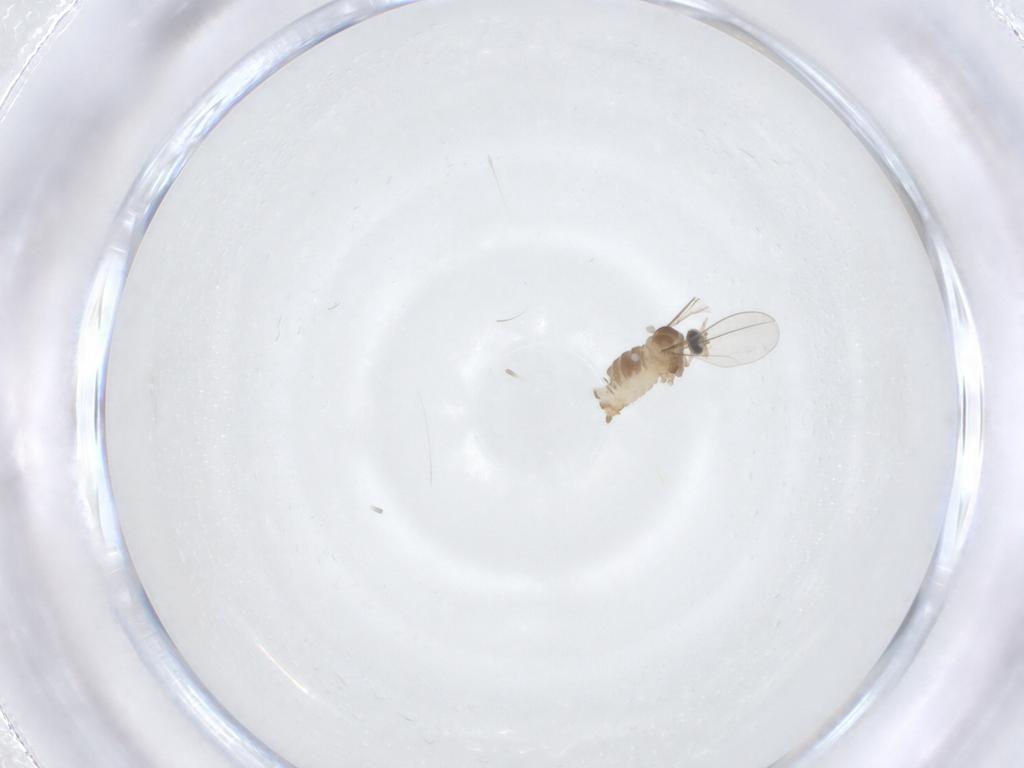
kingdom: Animalia
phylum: Arthropoda
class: Insecta
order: Diptera
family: Cecidomyiidae
